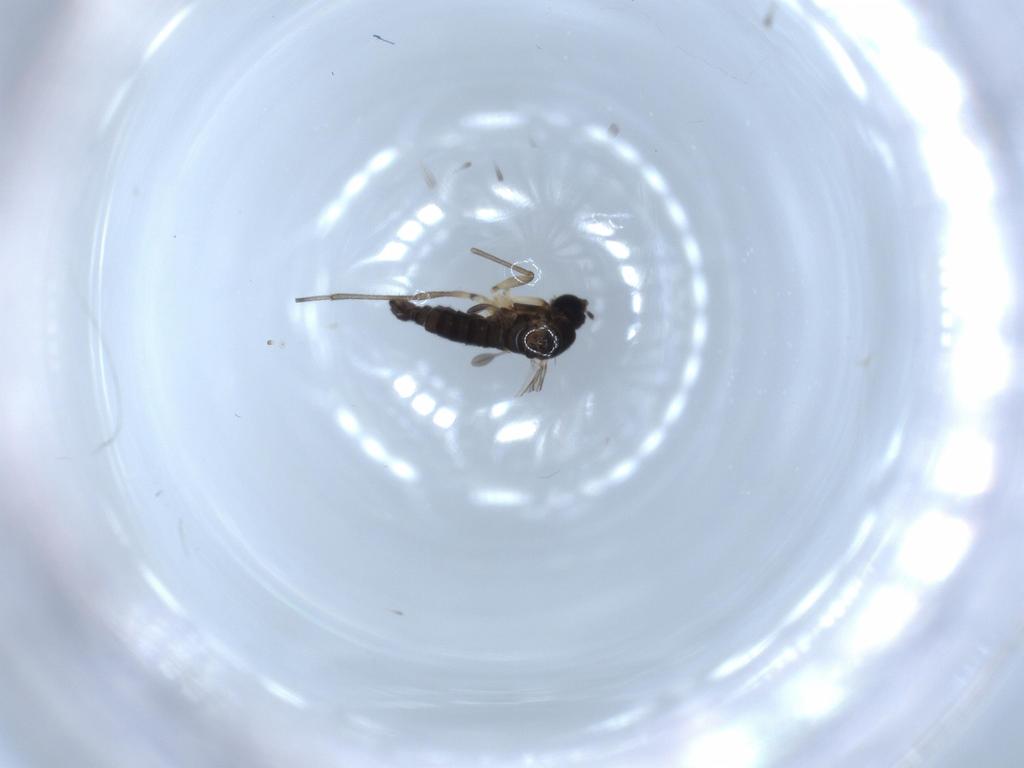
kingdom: Animalia
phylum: Arthropoda
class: Insecta
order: Diptera
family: Sciaridae
